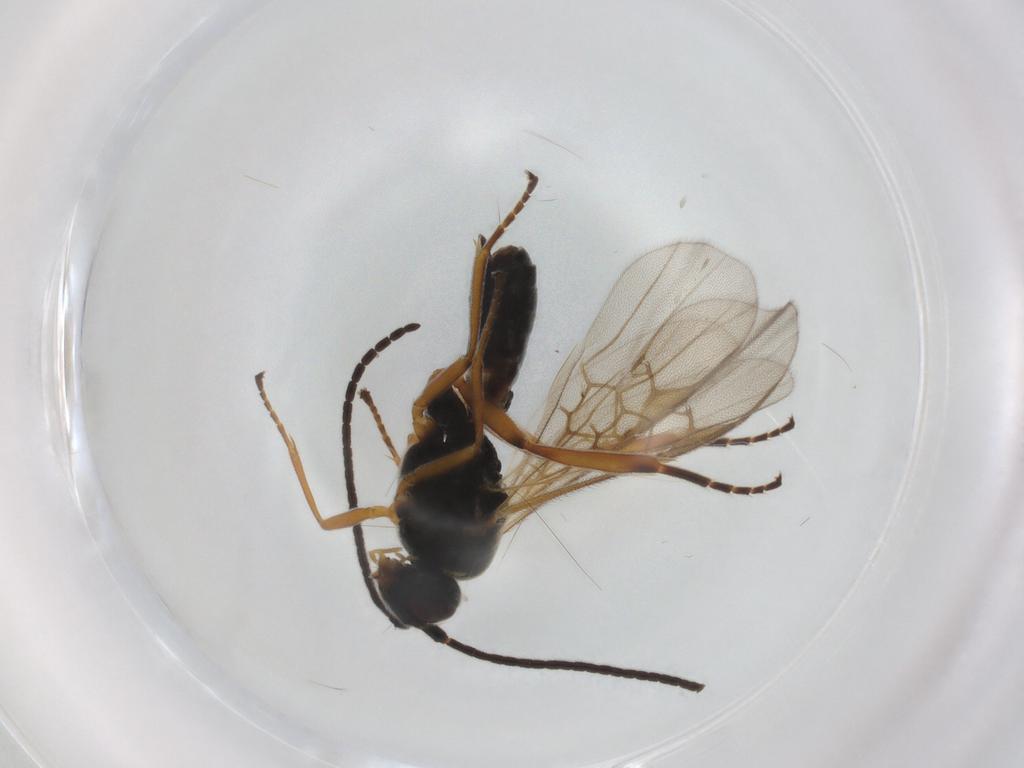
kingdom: Animalia
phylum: Arthropoda
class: Insecta
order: Hymenoptera
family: Braconidae
